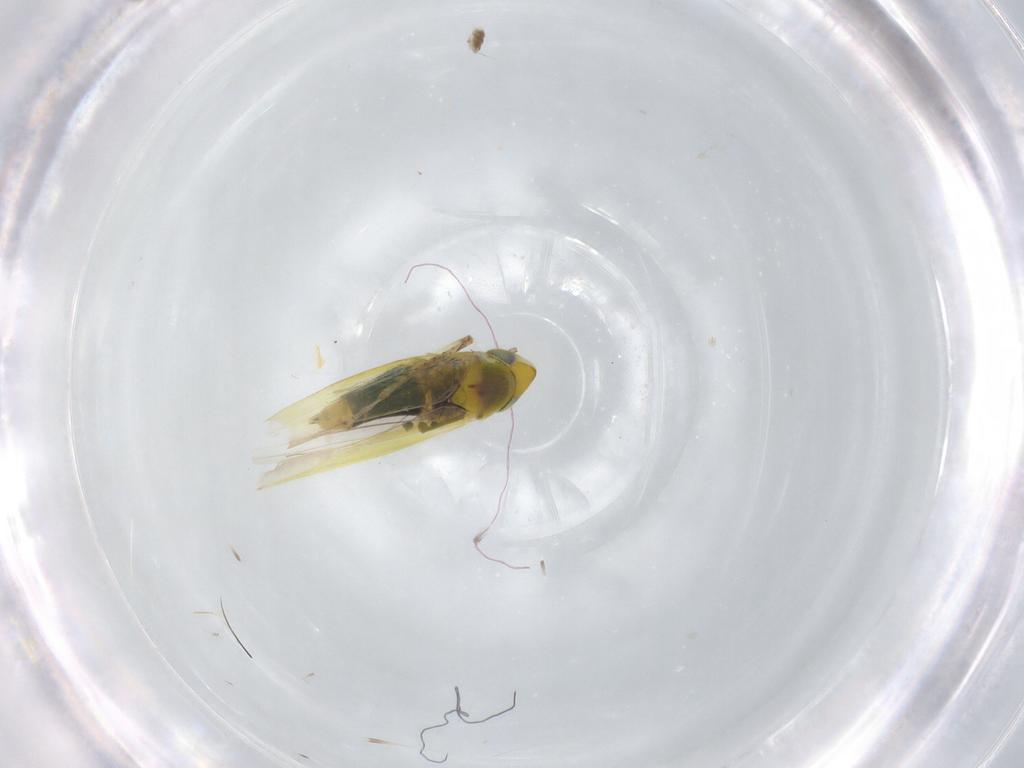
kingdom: Animalia
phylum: Arthropoda
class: Insecta
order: Hemiptera
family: Cicadellidae
